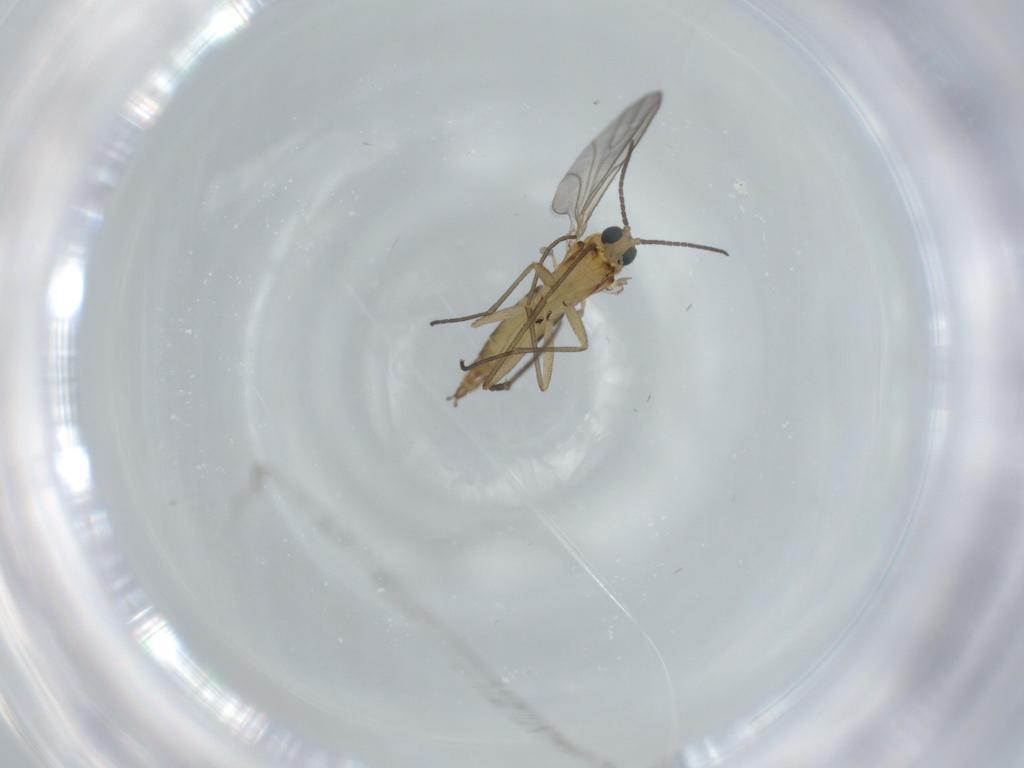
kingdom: Animalia
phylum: Arthropoda
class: Insecta
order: Diptera
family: Sciaridae
